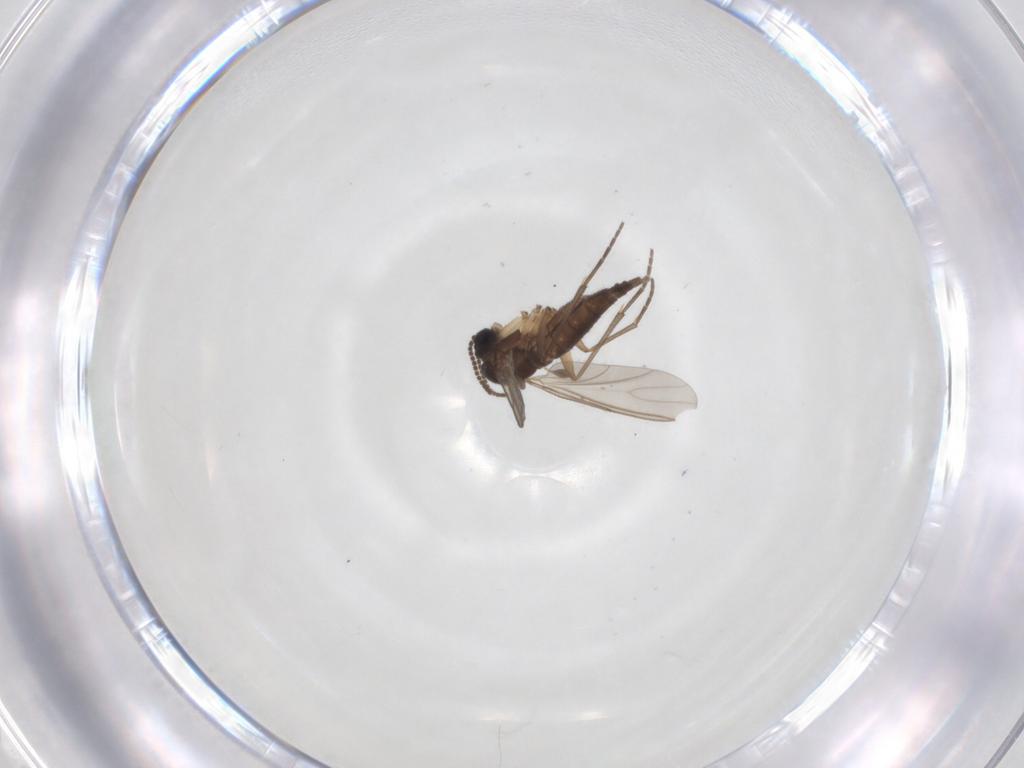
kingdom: Animalia
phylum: Arthropoda
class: Insecta
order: Diptera
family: Sciaridae
